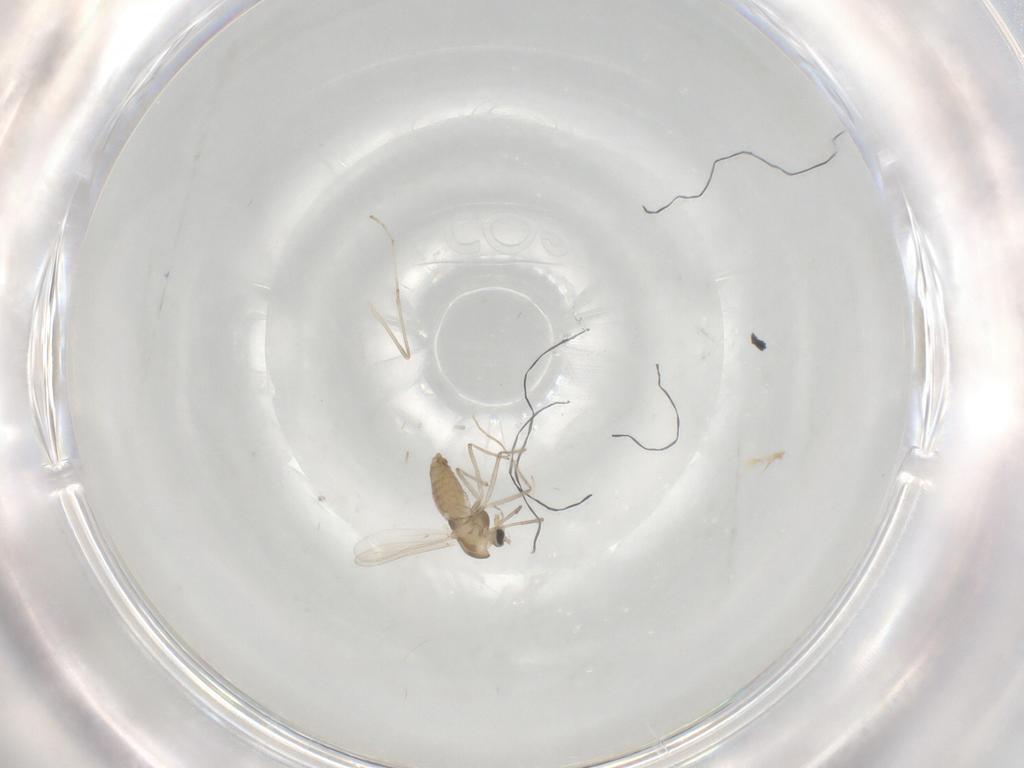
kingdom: Animalia
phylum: Arthropoda
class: Insecta
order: Diptera
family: Chironomidae
